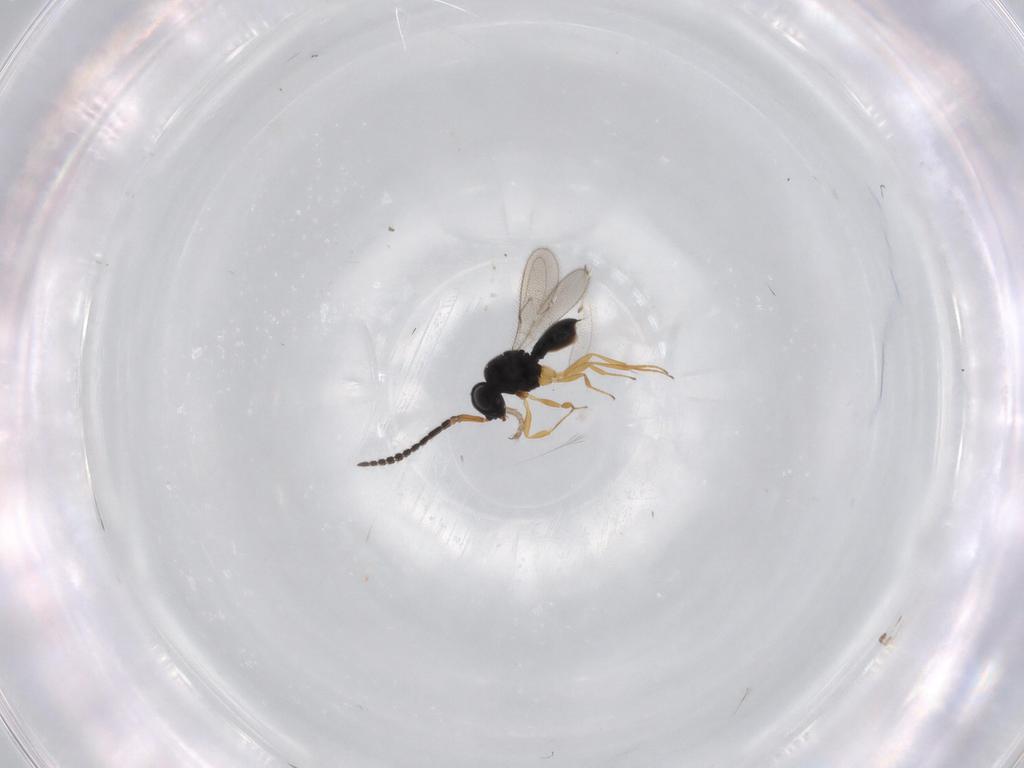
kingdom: Animalia
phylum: Arthropoda
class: Insecta
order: Hymenoptera
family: Scelionidae
